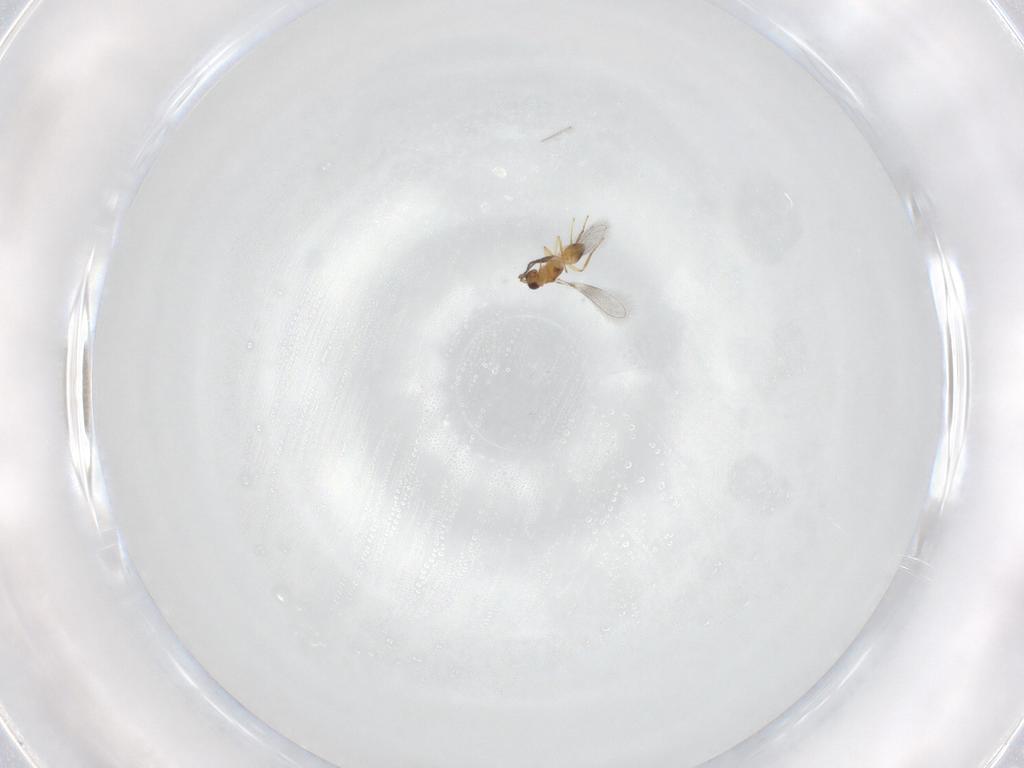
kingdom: Animalia
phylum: Arthropoda
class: Insecta
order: Hymenoptera
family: Mymaridae
